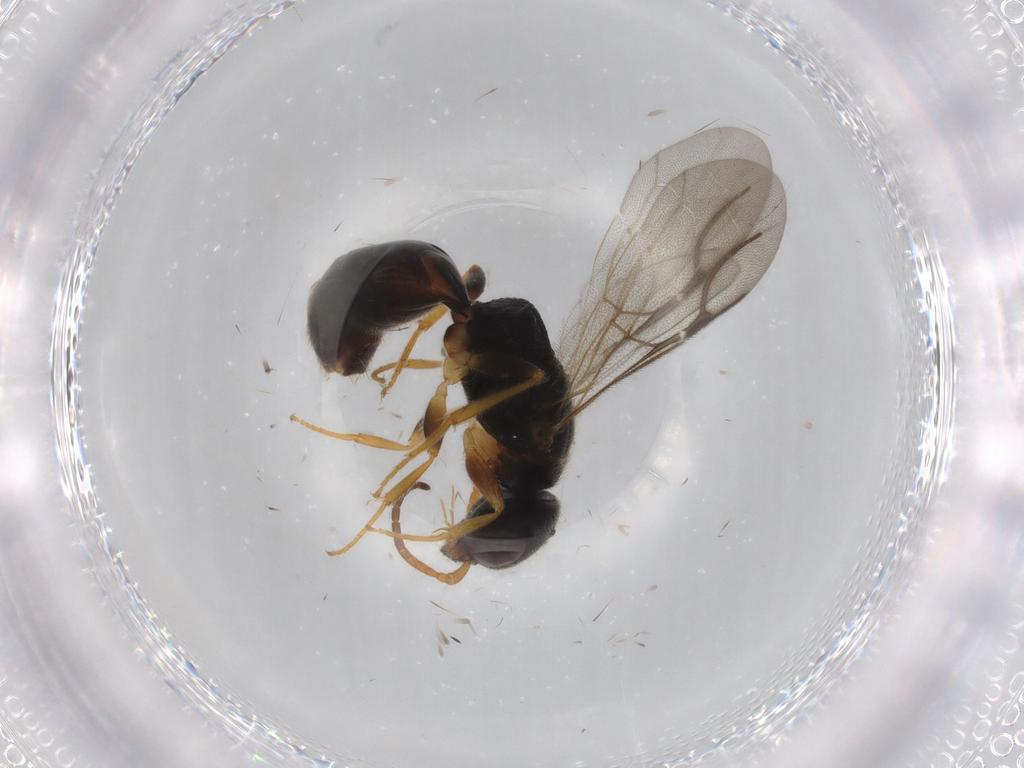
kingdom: Animalia
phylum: Arthropoda
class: Insecta
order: Hymenoptera
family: Bethylidae
